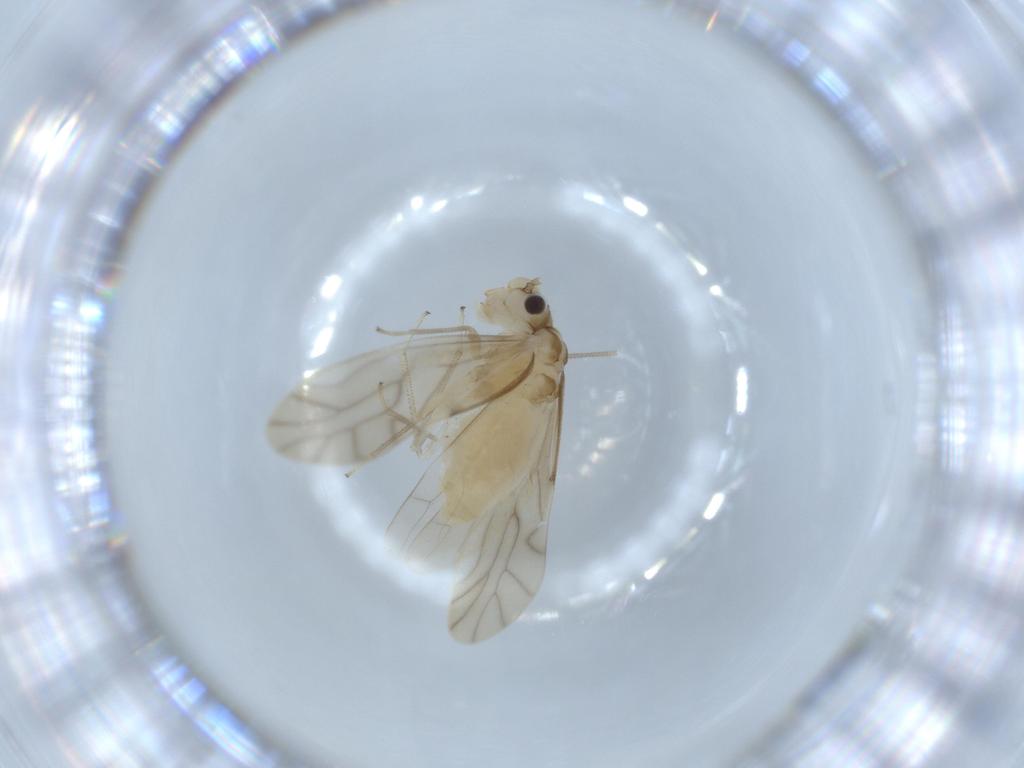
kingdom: Animalia
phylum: Arthropoda
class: Insecta
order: Psocodea
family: Caeciliusidae
